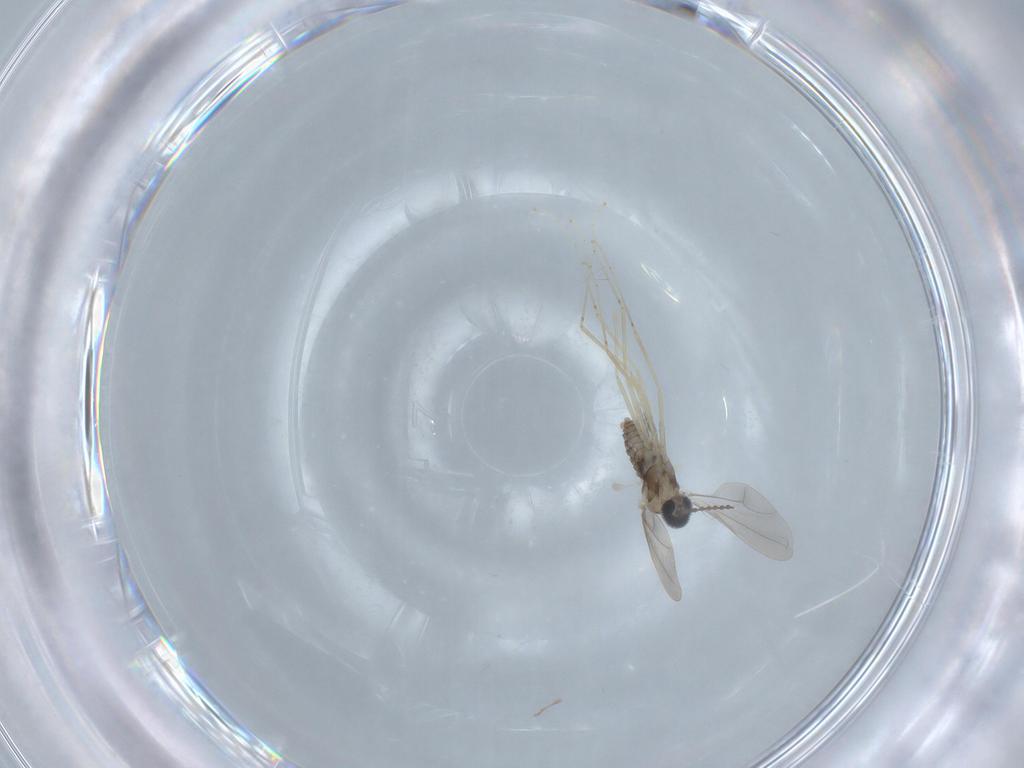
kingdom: Animalia
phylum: Arthropoda
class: Insecta
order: Diptera
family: Cecidomyiidae
